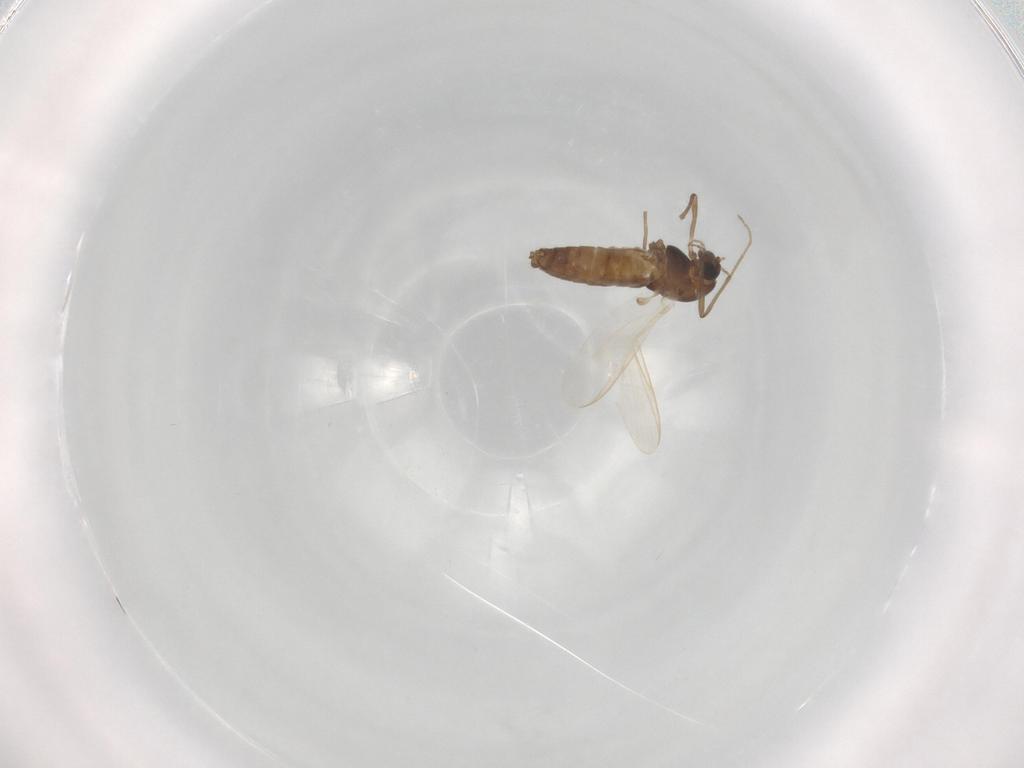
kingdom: Animalia
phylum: Arthropoda
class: Insecta
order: Diptera
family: Chironomidae
